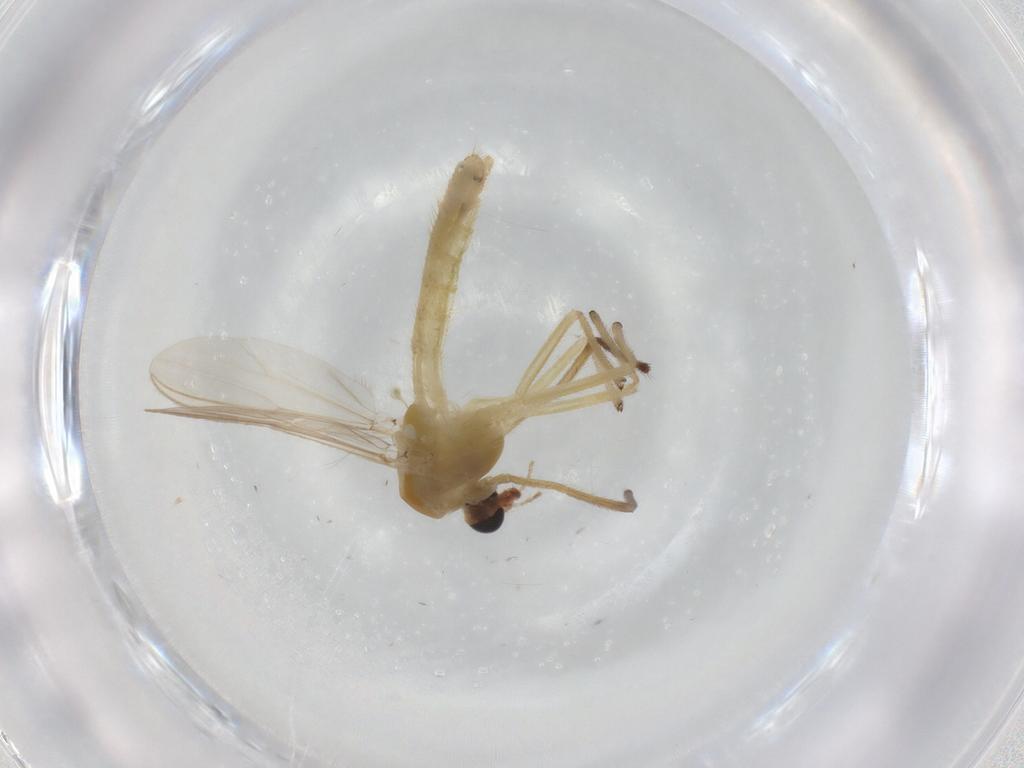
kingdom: Animalia
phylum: Arthropoda
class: Insecta
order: Diptera
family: Chironomidae
